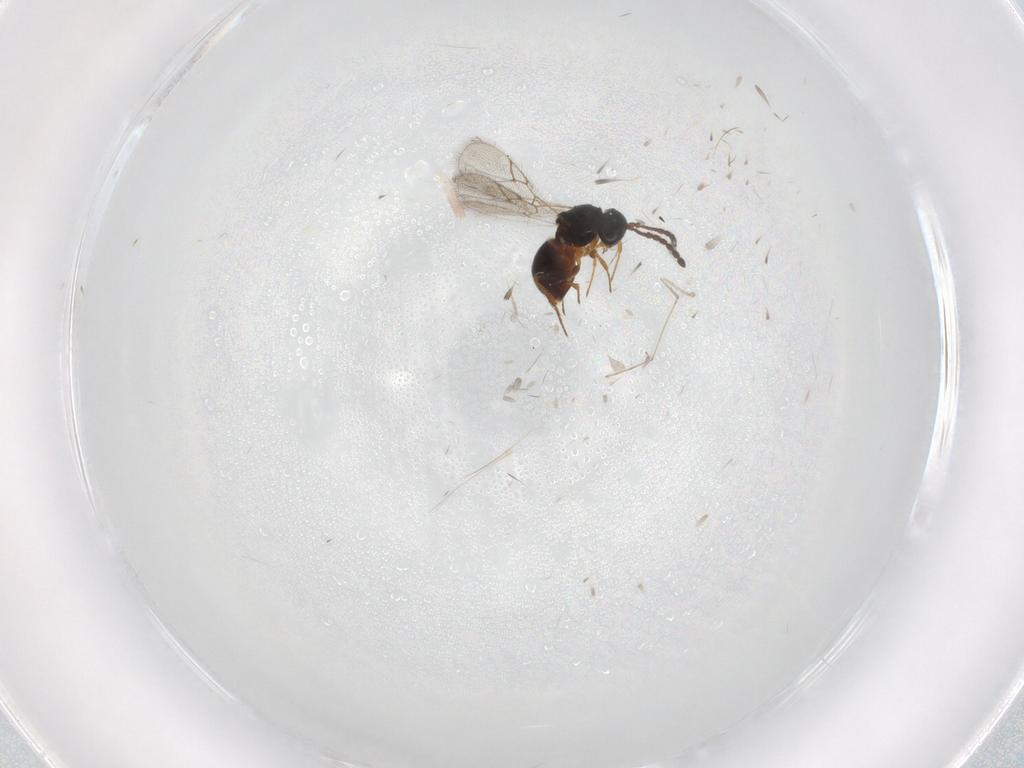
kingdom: Animalia
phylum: Arthropoda
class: Insecta
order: Hymenoptera
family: Figitidae
